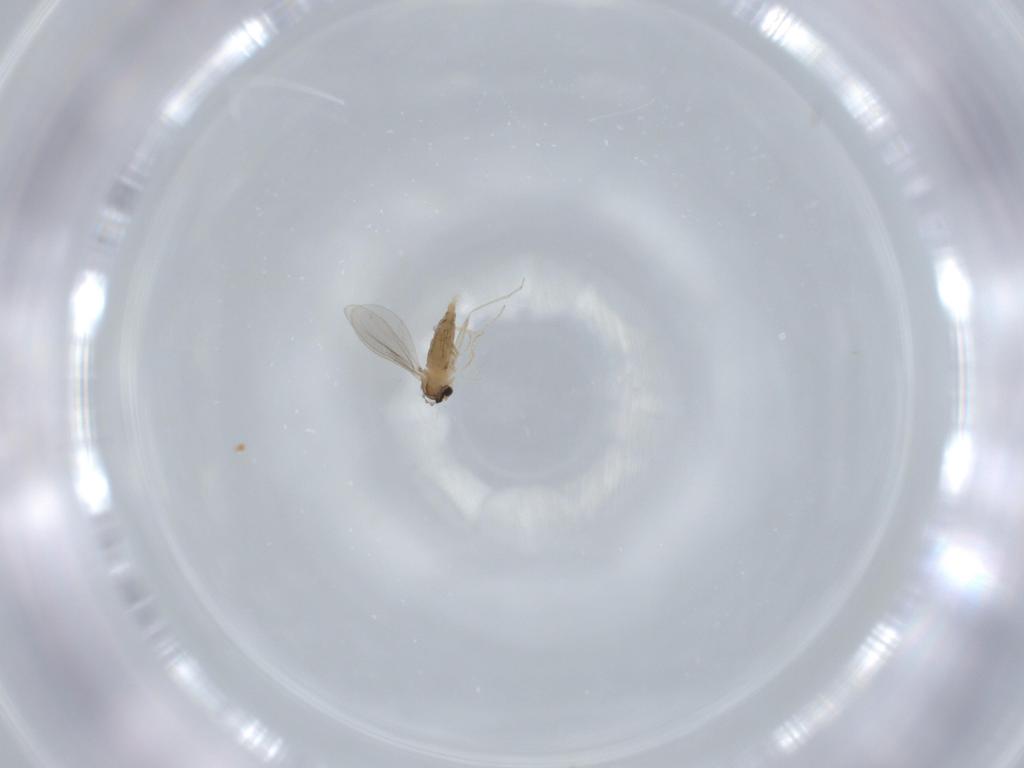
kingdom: Animalia
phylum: Arthropoda
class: Insecta
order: Diptera
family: Cecidomyiidae
